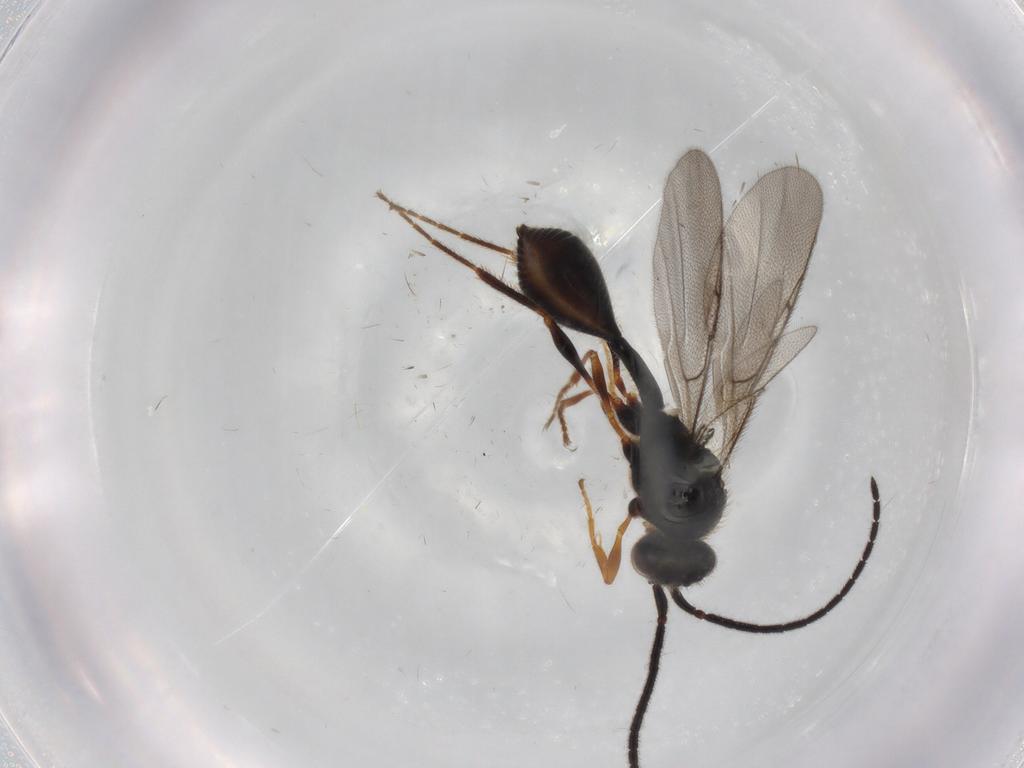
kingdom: Animalia
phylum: Arthropoda
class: Insecta
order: Hymenoptera
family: Diapriidae
